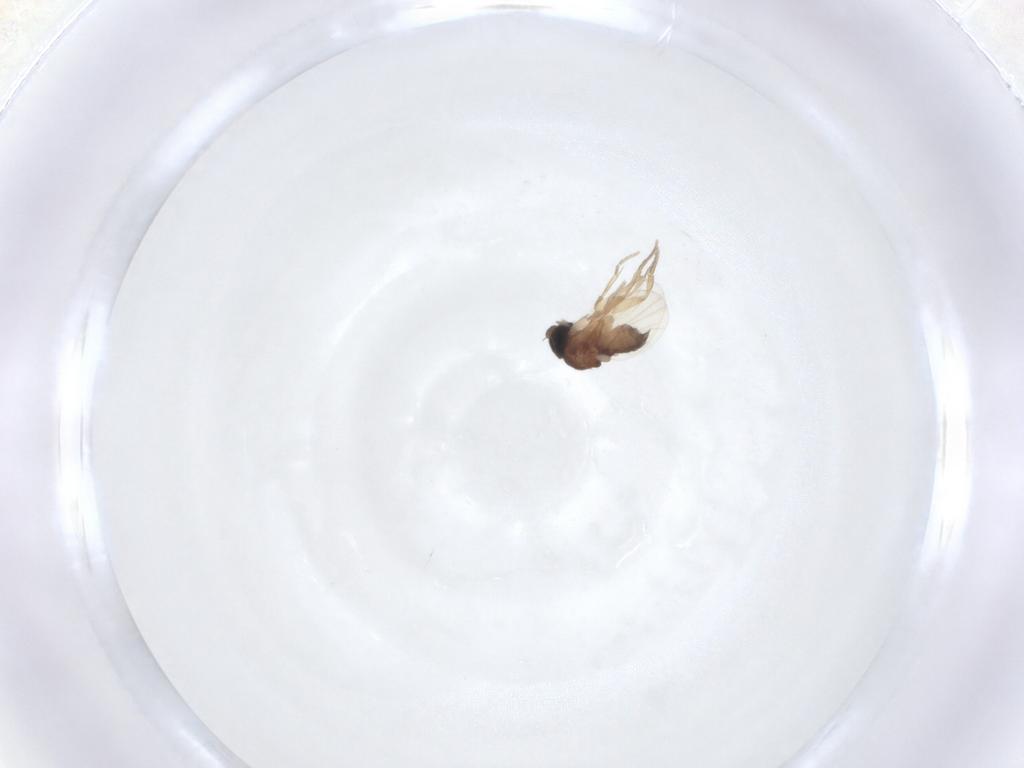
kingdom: Animalia
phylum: Arthropoda
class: Insecta
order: Diptera
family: Phoridae
